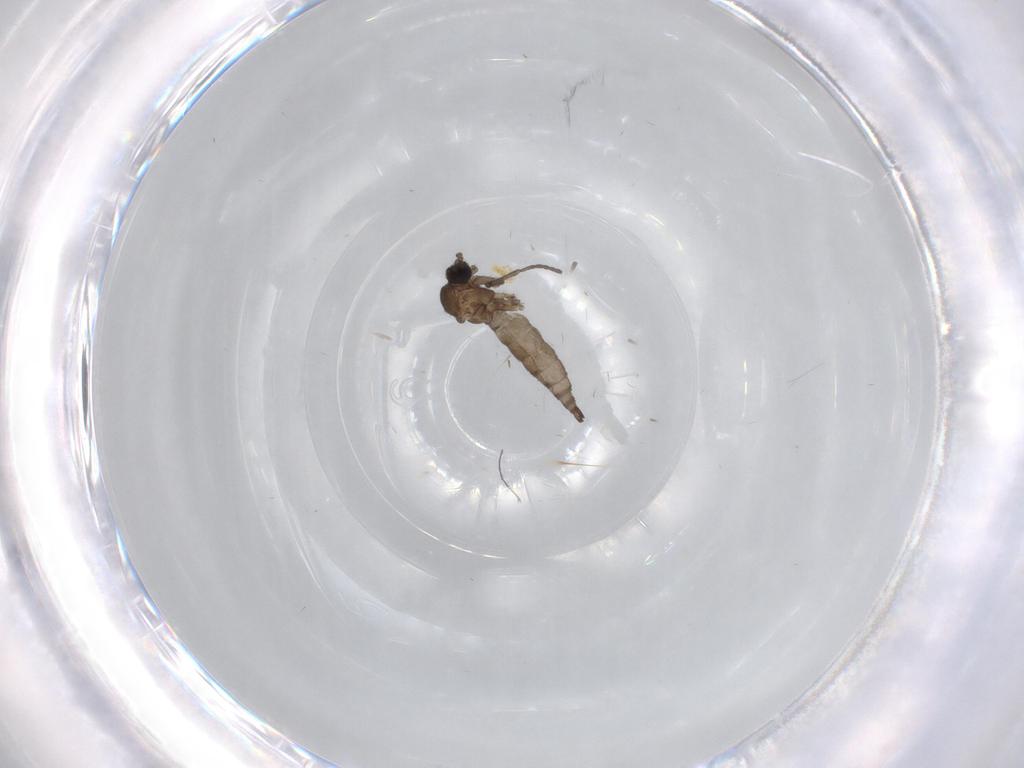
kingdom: Animalia
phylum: Arthropoda
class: Insecta
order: Diptera
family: Sciaridae
